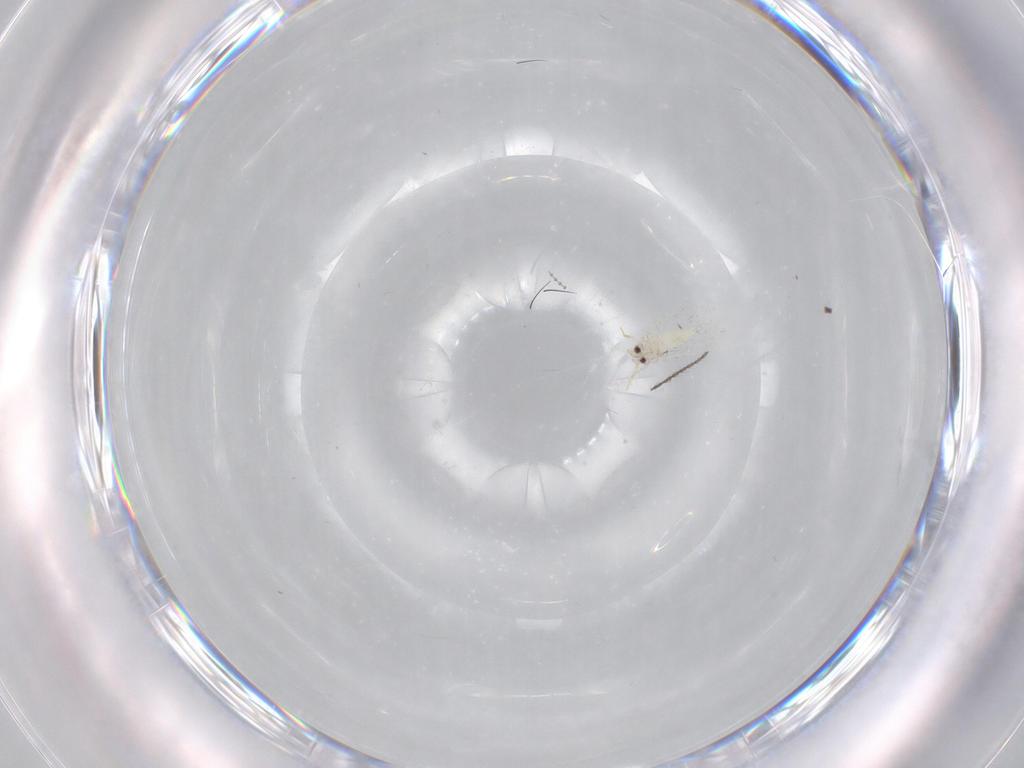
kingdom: Animalia
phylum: Arthropoda
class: Insecta
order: Hemiptera
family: Aleyrodidae
